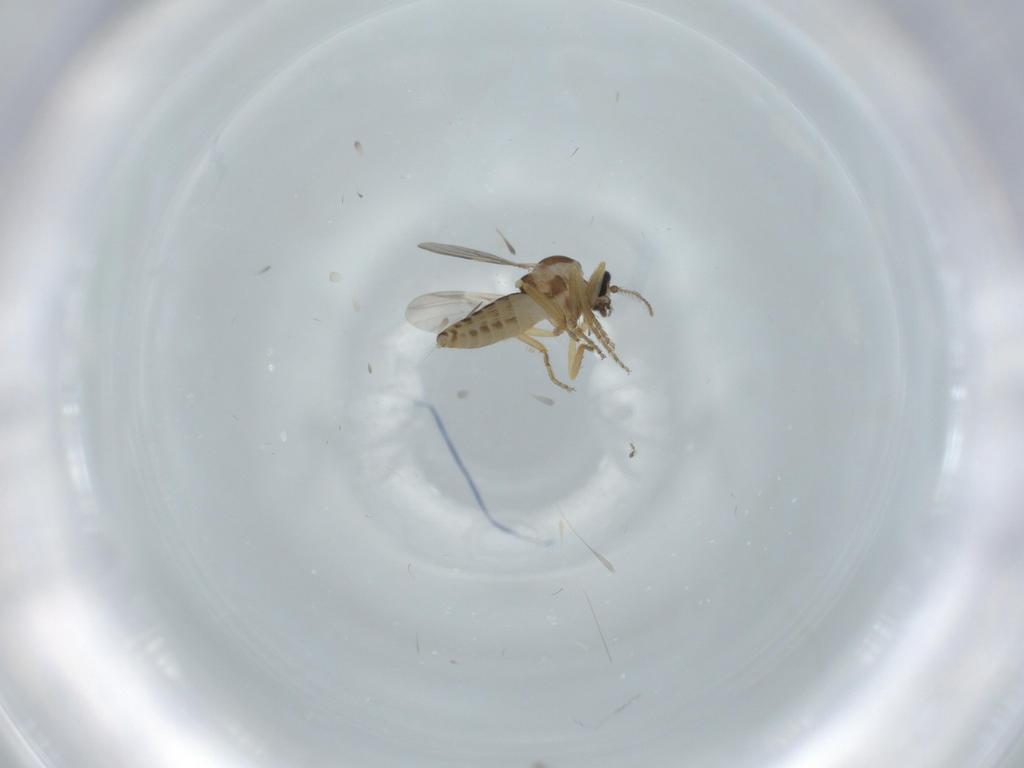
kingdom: Animalia
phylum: Arthropoda
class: Insecta
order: Diptera
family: Ceratopogonidae
